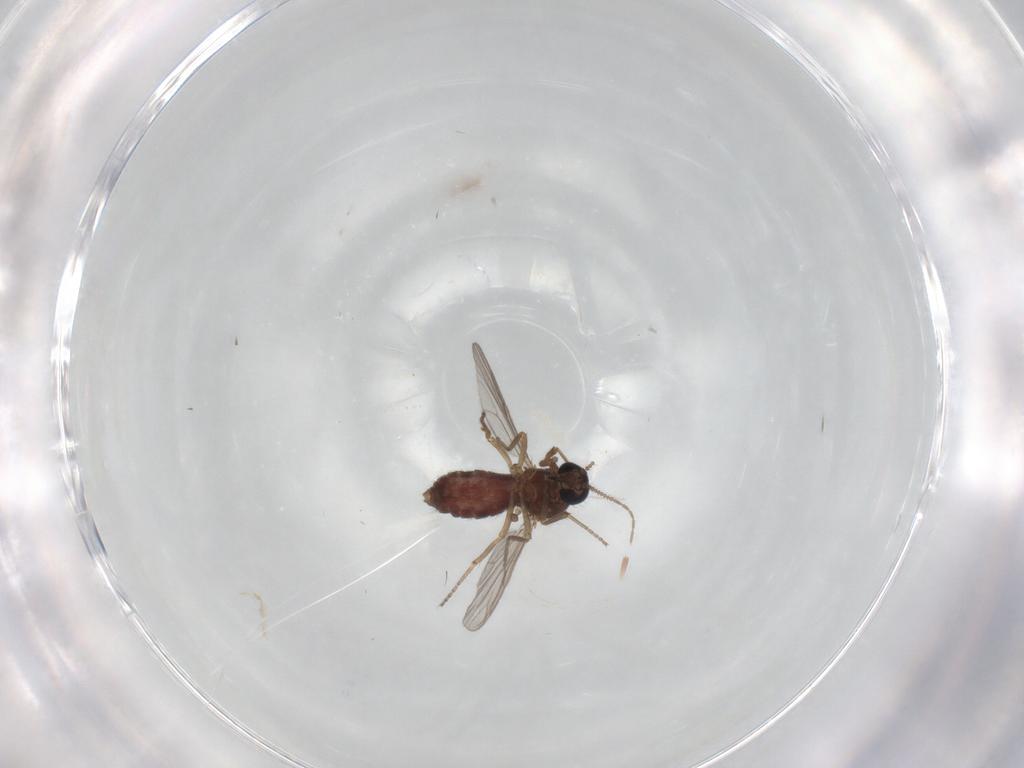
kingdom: Animalia
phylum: Arthropoda
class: Insecta
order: Diptera
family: Ceratopogonidae
